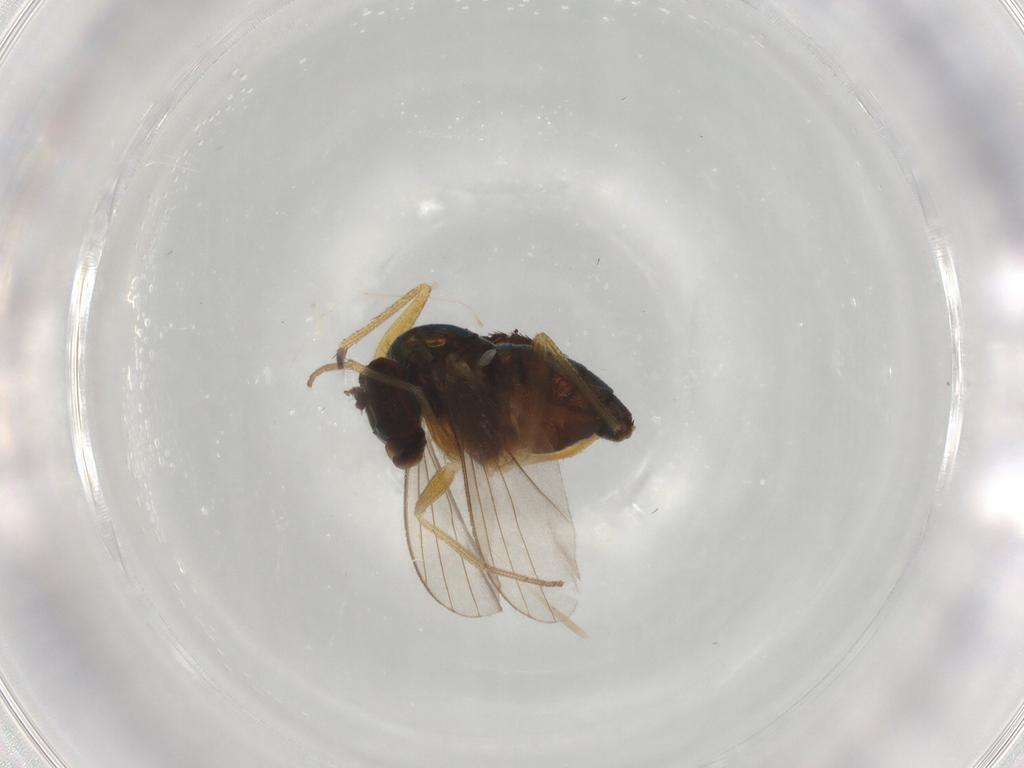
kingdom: Animalia
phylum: Arthropoda
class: Insecta
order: Diptera
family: Muscidae
